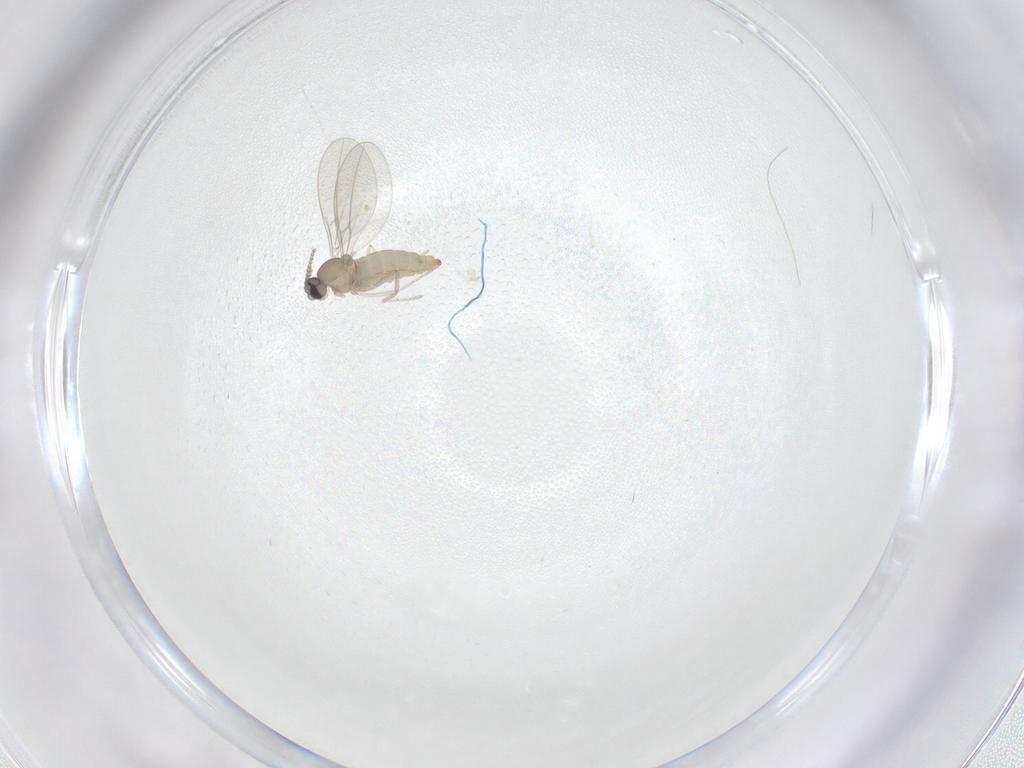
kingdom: Animalia
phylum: Arthropoda
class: Insecta
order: Diptera
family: Cecidomyiidae
